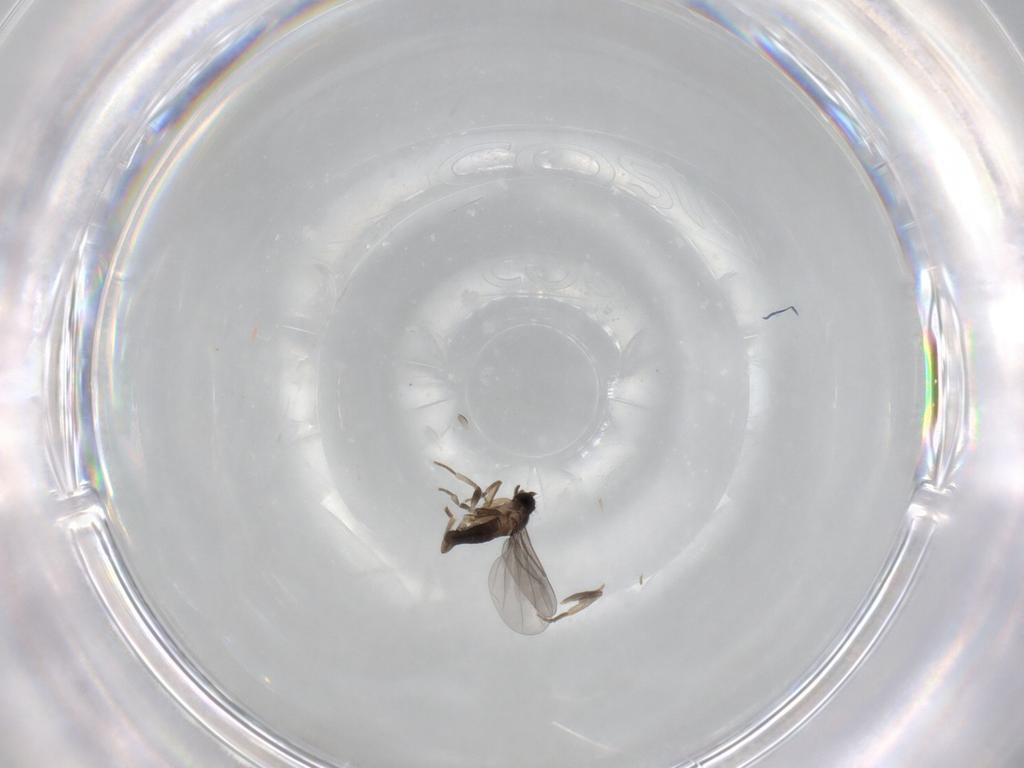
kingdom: Animalia
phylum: Arthropoda
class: Insecta
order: Diptera
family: Phoridae
